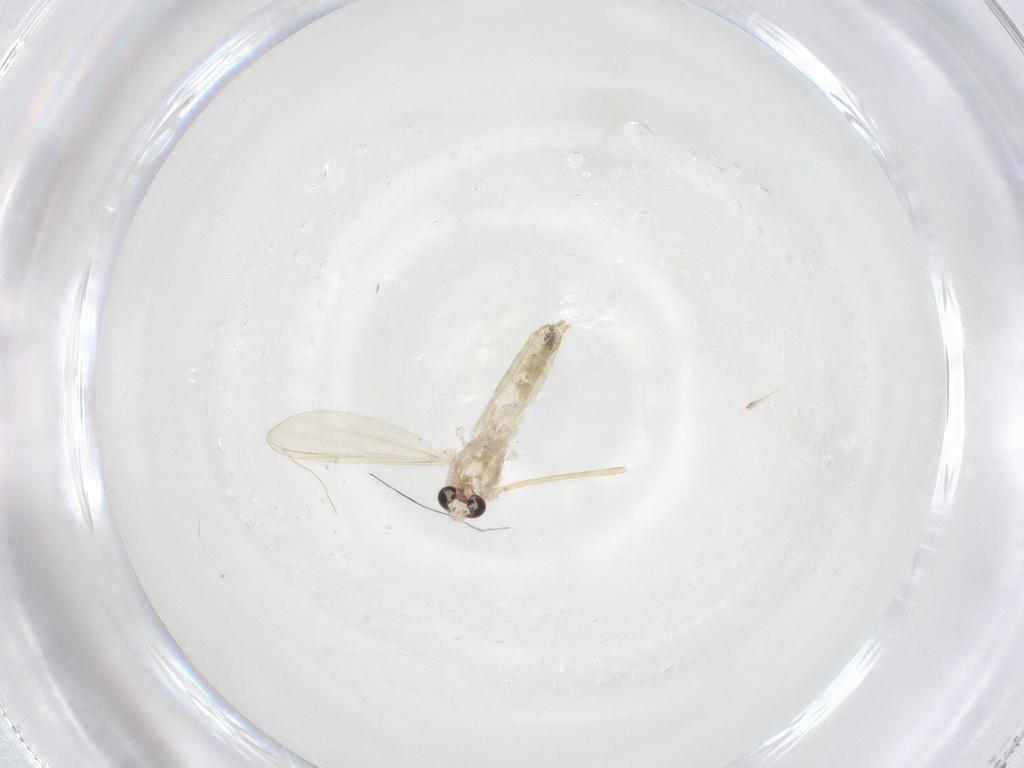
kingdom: Animalia
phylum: Arthropoda
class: Insecta
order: Diptera
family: Chironomidae
